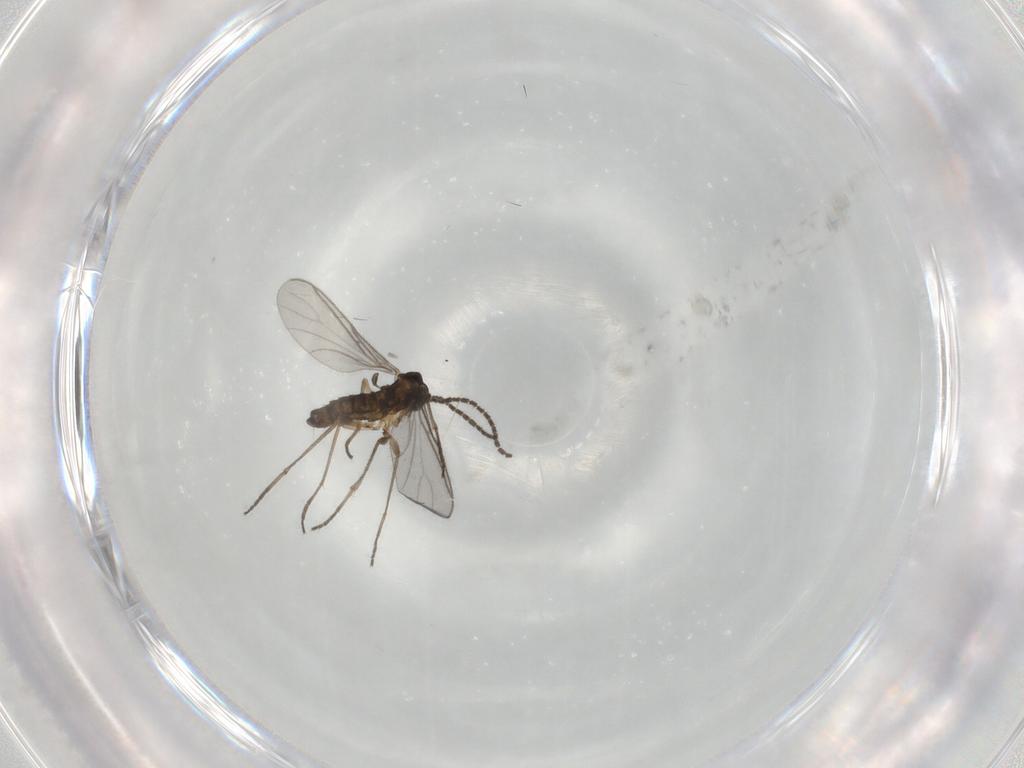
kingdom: Animalia
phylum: Arthropoda
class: Insecta
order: Diptera
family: Sciaridae
